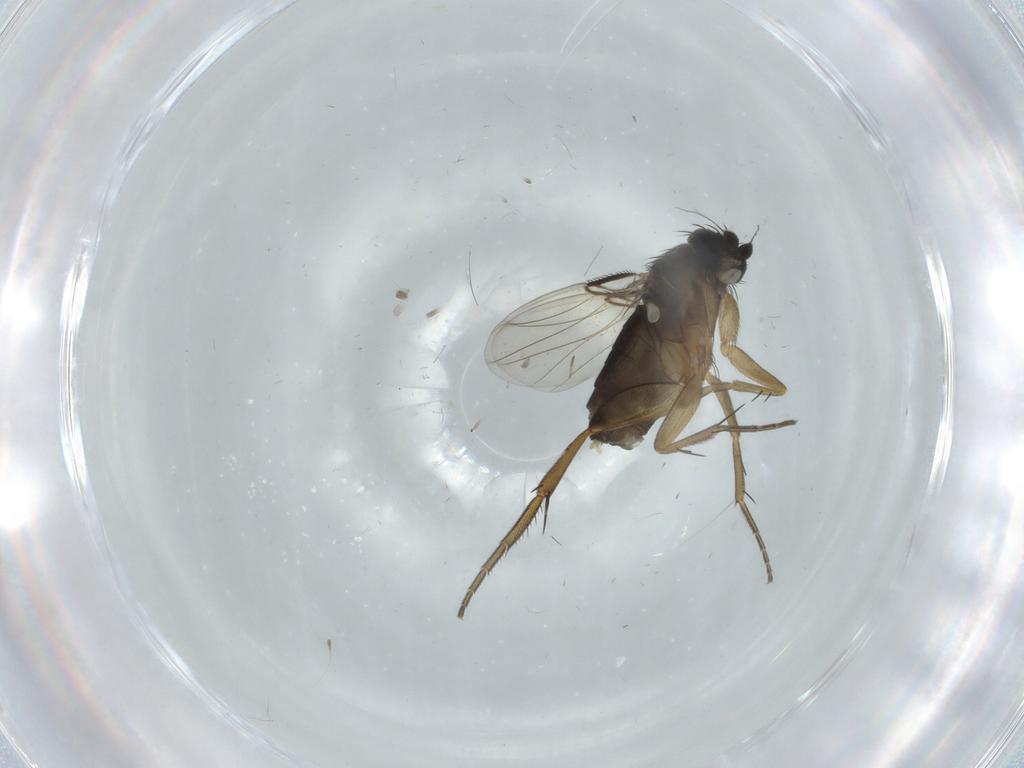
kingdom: Animalia
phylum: Arthropoda
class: Insecta
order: Diptera
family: Phoridae
